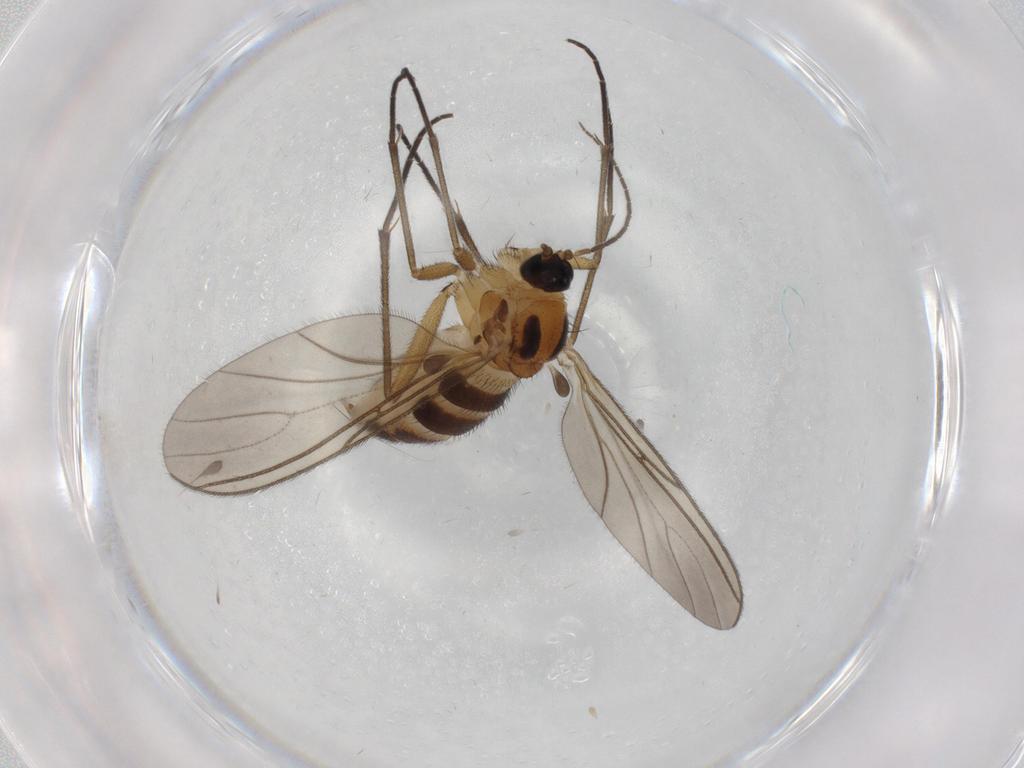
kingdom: Animalia
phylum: Arthropoda
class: Insecta
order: Diptera
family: Sciaridae
